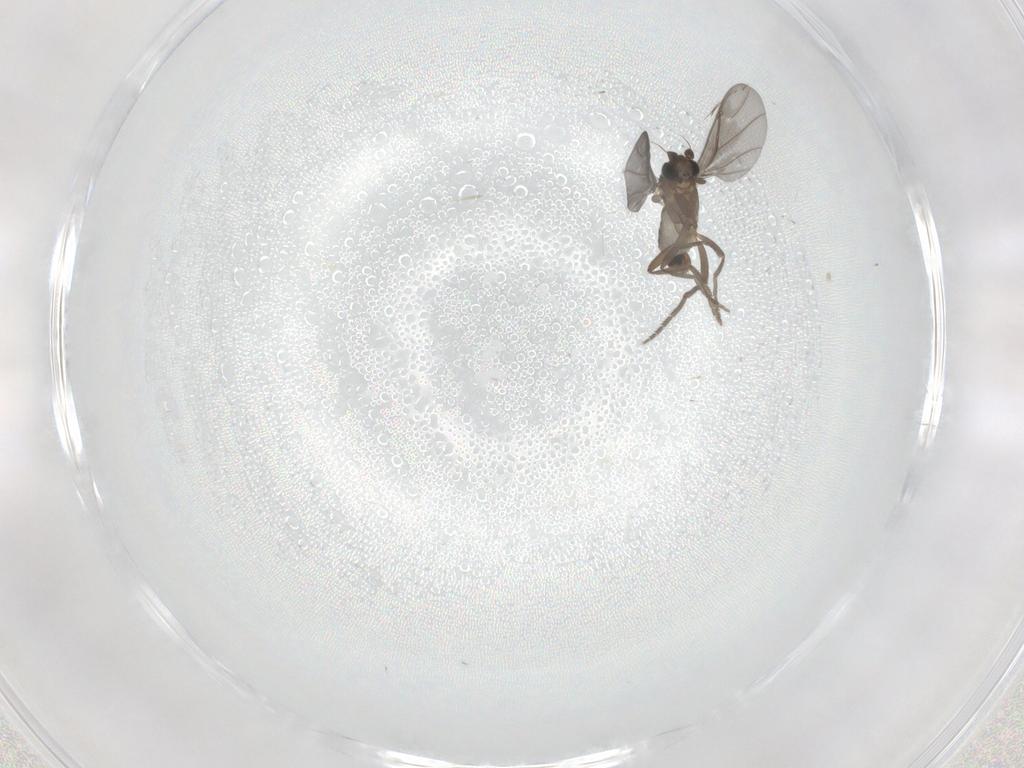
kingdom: Animalia
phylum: Arthropoda
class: Insecta
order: Diptera
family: Phoridae
